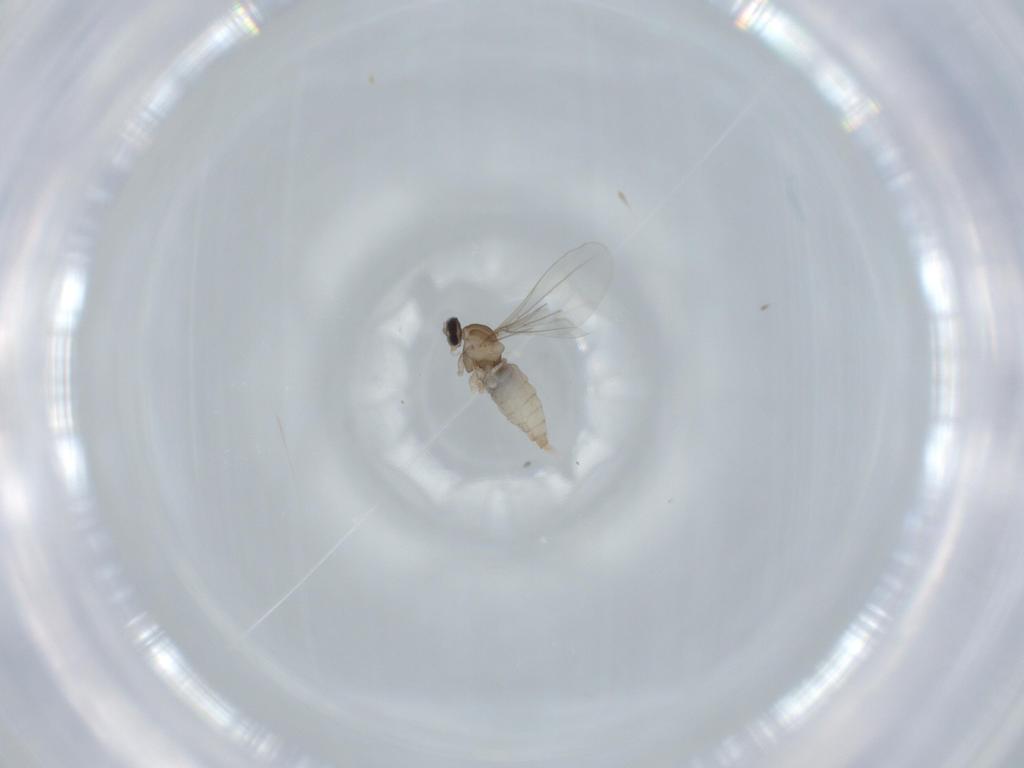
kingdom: Animalia
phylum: Arthropoda
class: Insecta
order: Diptera
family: Cecidomyiidae
